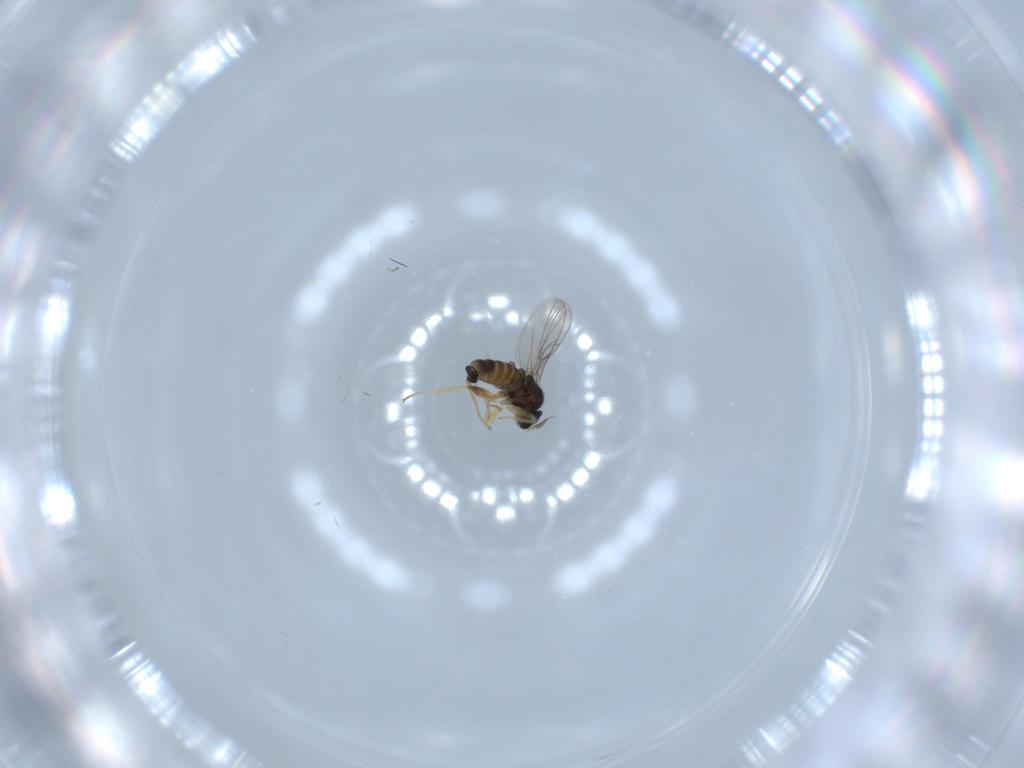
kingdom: Animalia
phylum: Arthropoda
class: Insecta
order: Diptera
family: Hybotidae
